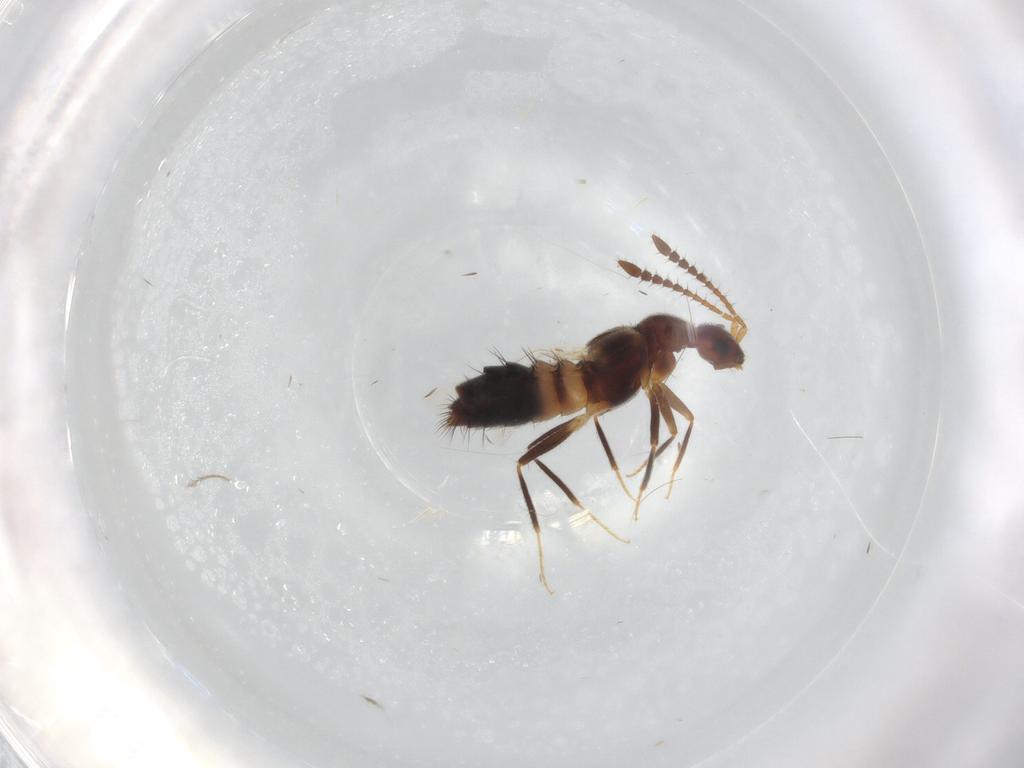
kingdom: Animalia
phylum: Arthropoda
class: Insecta
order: Coleoptera
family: Staphylinidae
